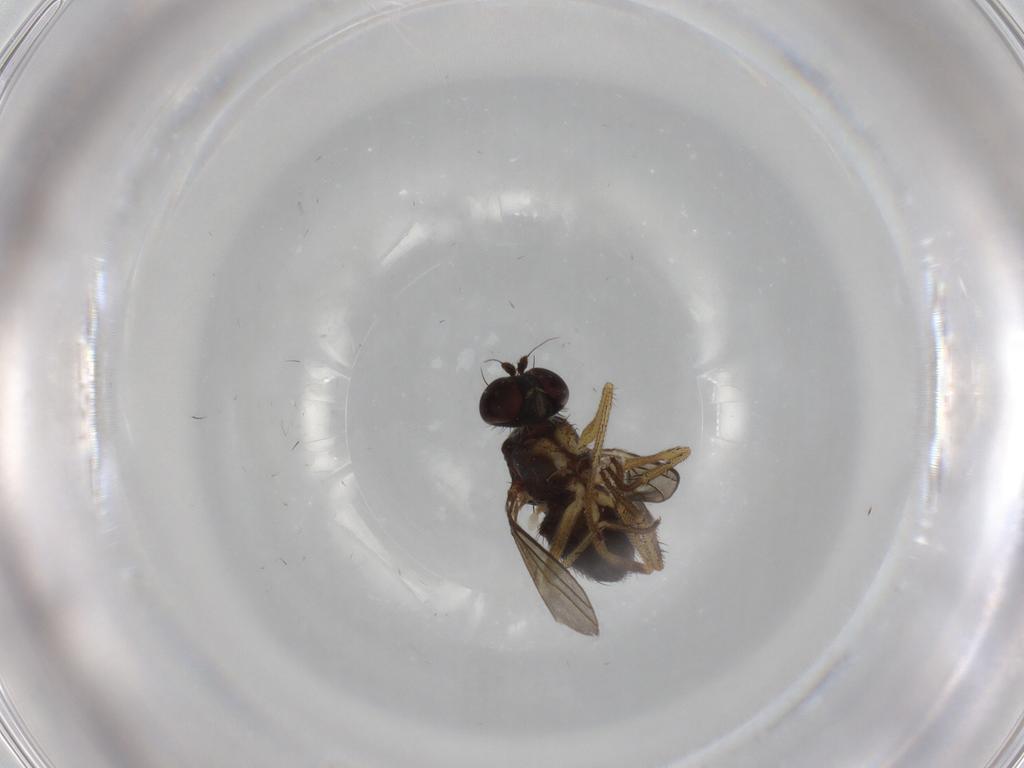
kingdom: Animalia
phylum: Arthropoda
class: Insecta
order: Diptera
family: Dolichopodidae
